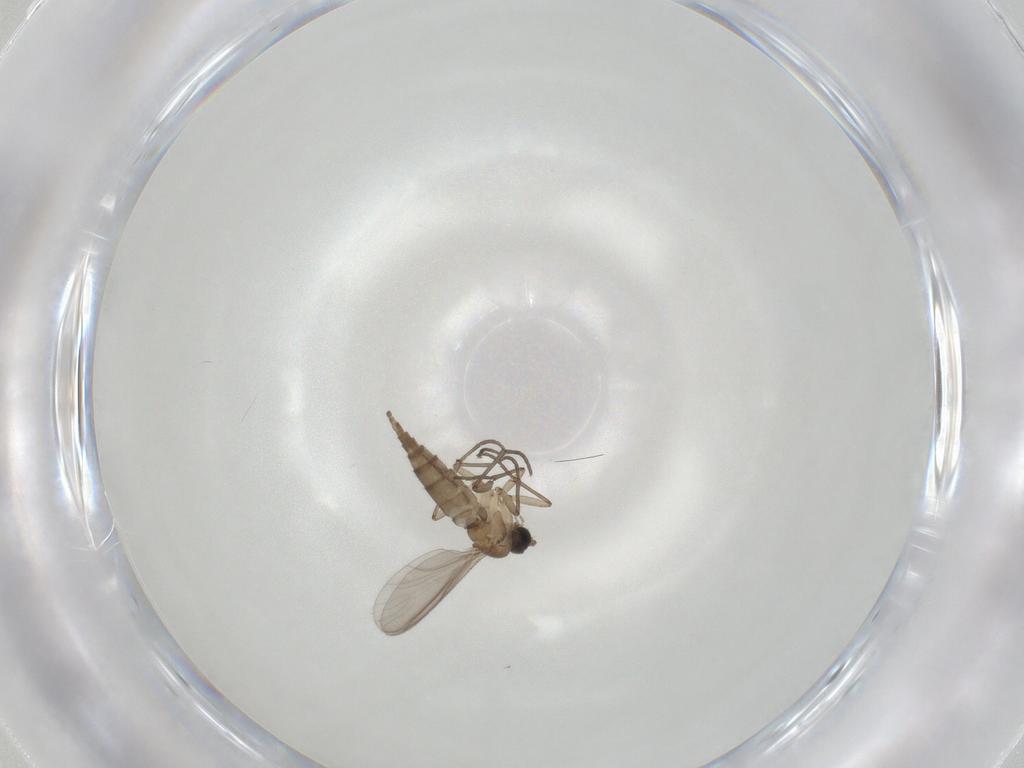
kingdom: Animalia
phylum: Arthropoda
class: Insecta
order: Diptera
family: Sciaridae
